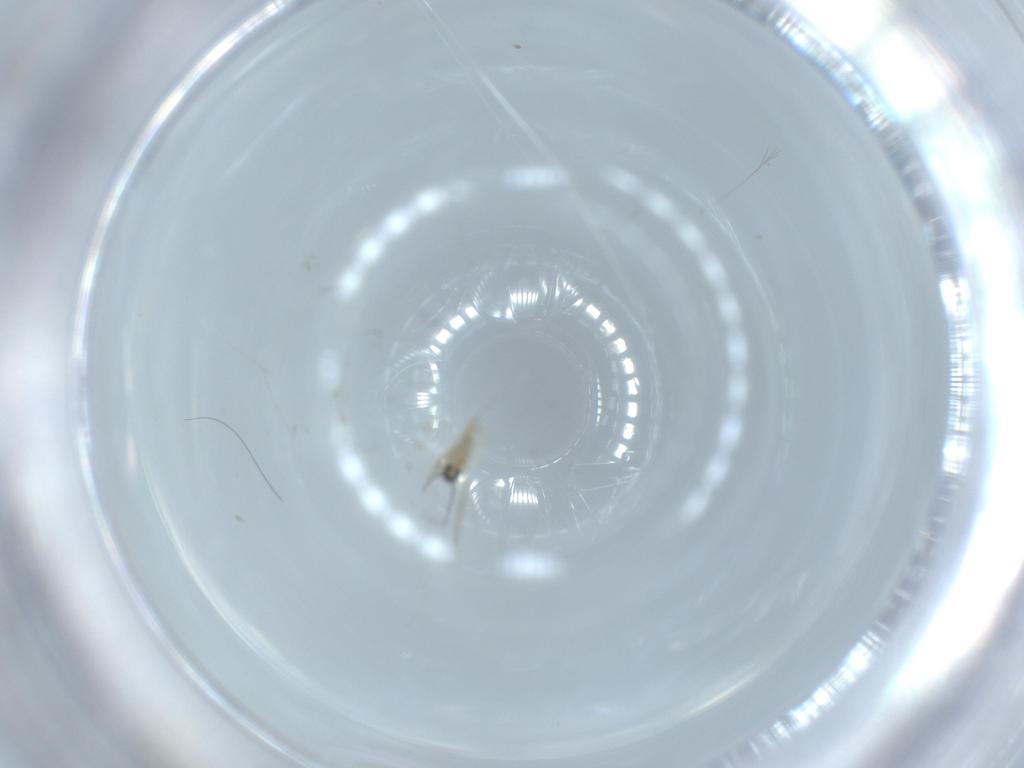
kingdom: Animalia
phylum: Arthropoda
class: Insecta
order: Diptera
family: Cecidomyiidae
